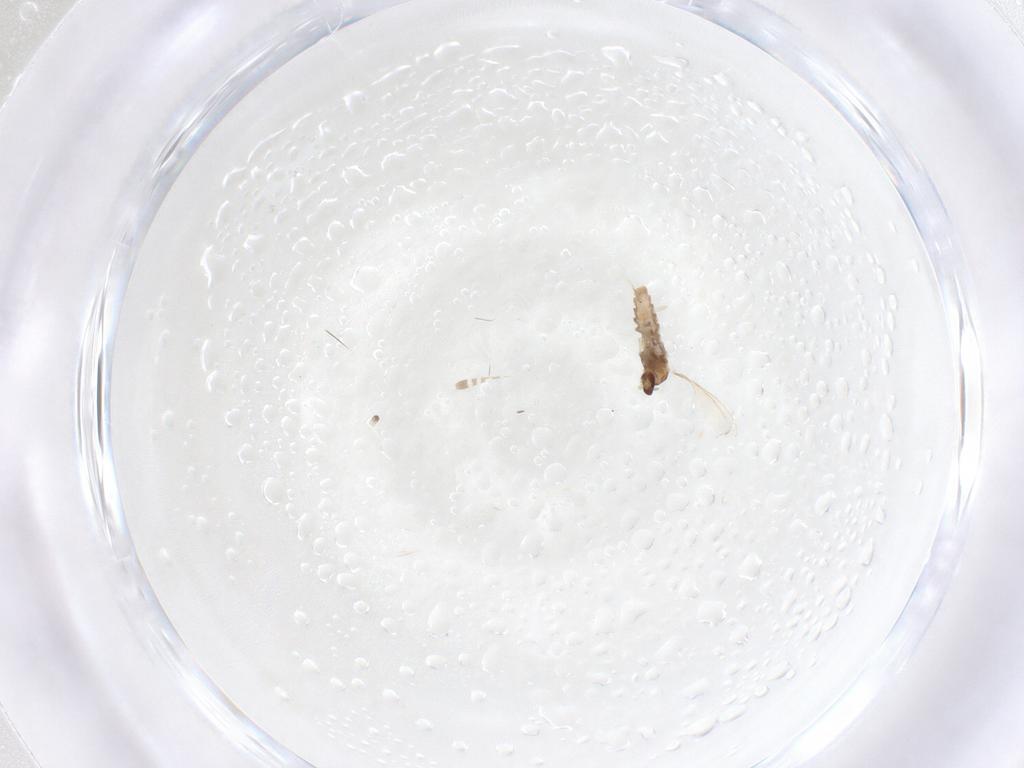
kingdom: Animalia
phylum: Arthropoda
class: Insecta
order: Diptera
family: Cecidomyiidae
